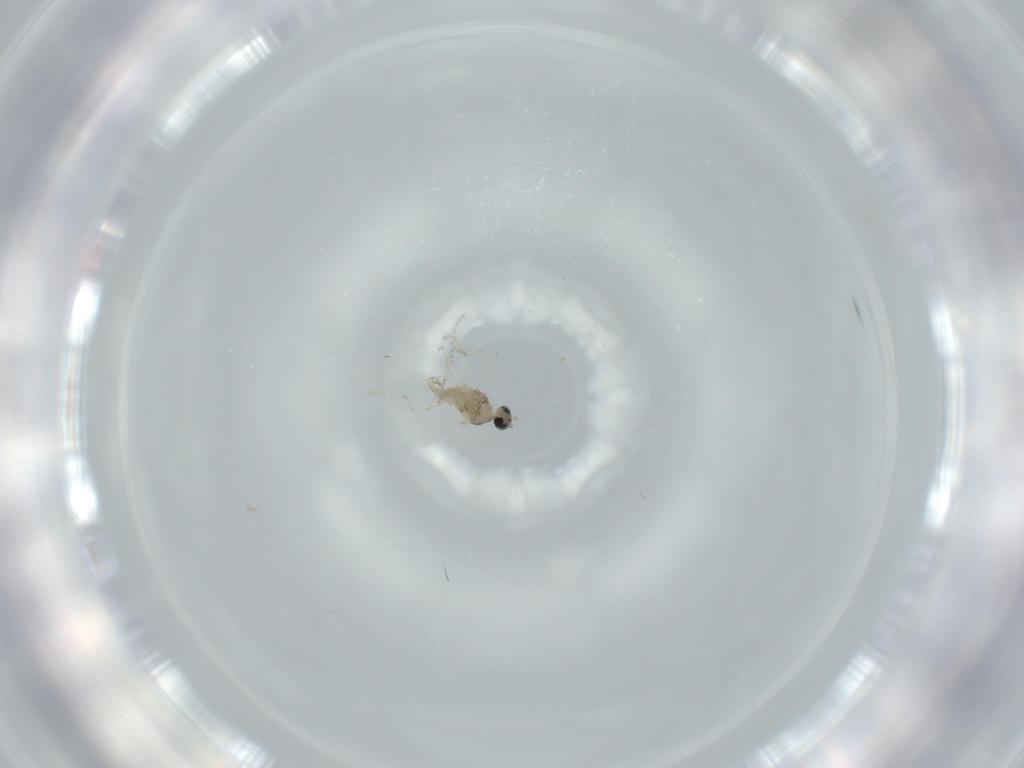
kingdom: Animalia
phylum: Arthropoda
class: Insecta
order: Diptera
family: Cecidomyiidae
